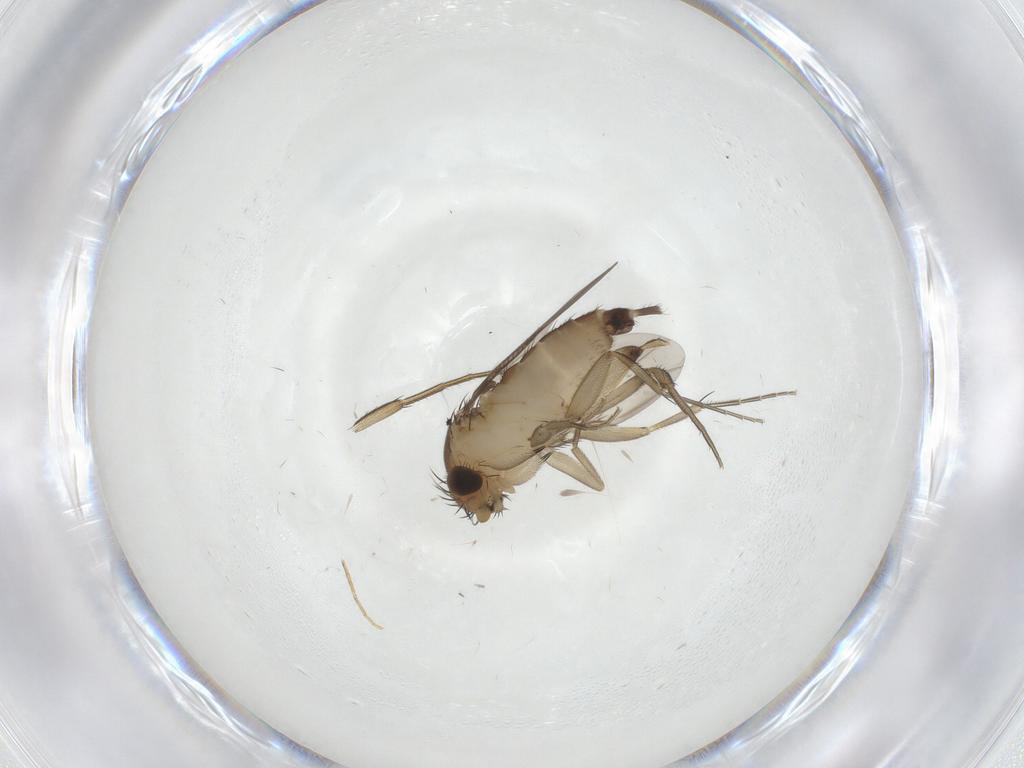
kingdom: Animalia
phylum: Arthropoda
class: Insecta
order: Diptera
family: Phoridae
